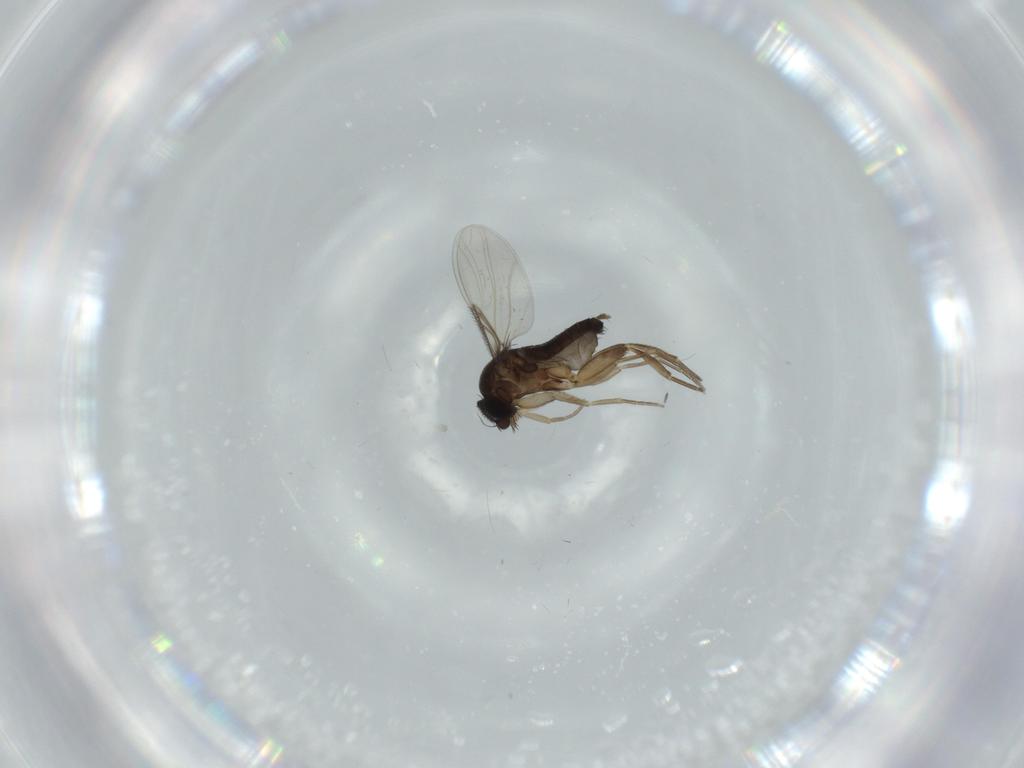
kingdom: Animalia
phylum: Arthropoda
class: Insecta
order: Diptera
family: Phoridae
